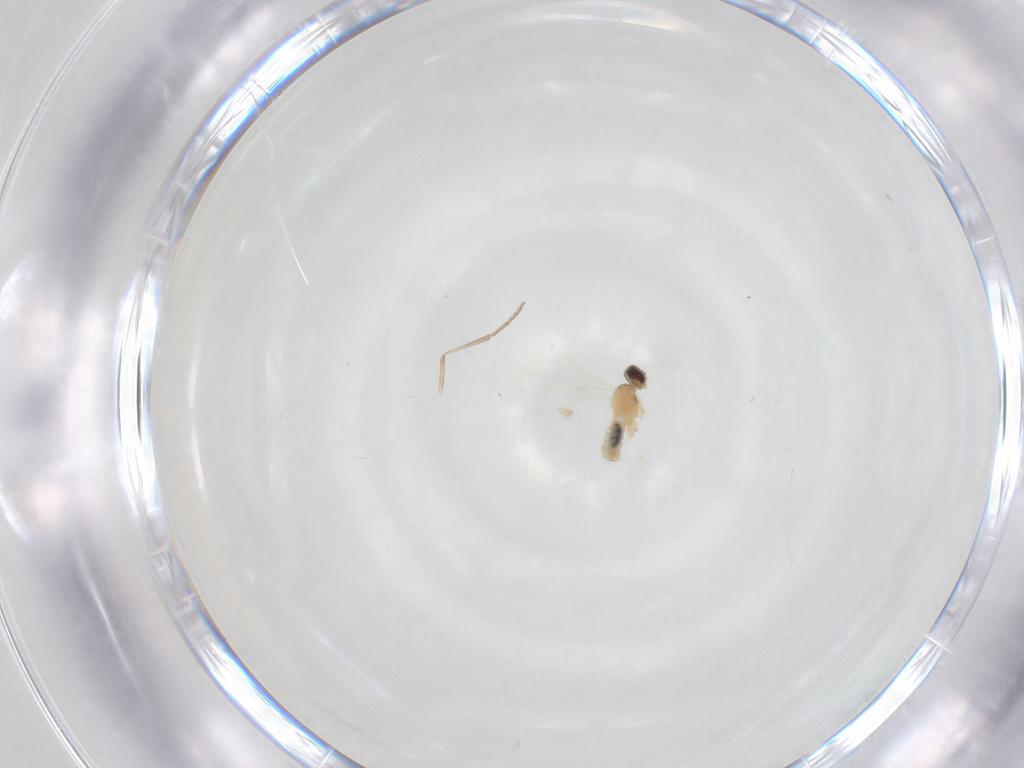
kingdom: Animalia
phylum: Arthropoda
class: Insecta
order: Diptera
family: Cecidomyiidae
